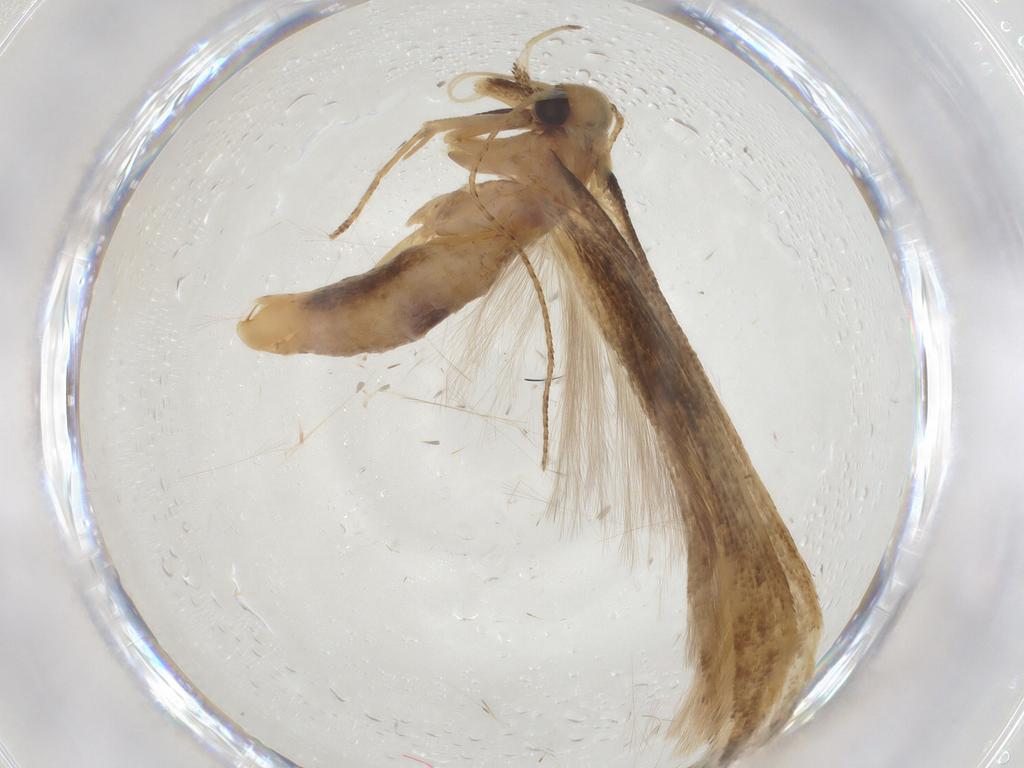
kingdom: Animalia
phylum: Arthropoda
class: Insecta
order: Lepidoptera
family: Gelechiidae
